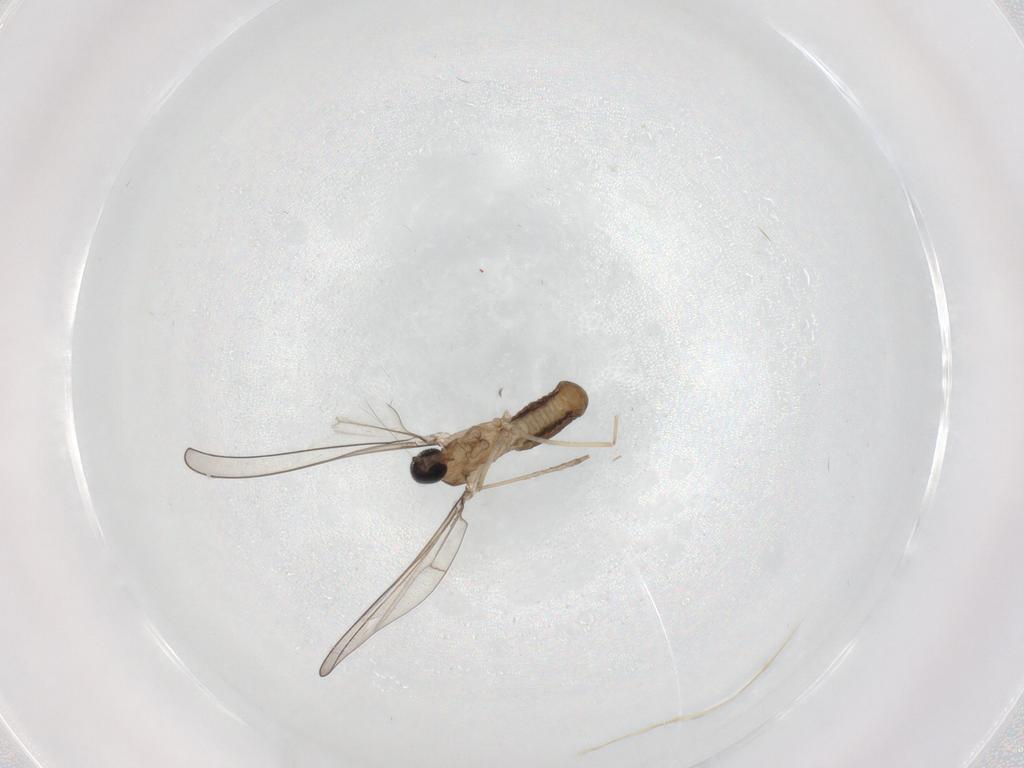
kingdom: Animalia
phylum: Arthropoda
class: Insecta
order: Diptera
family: Cecidomyiidae
